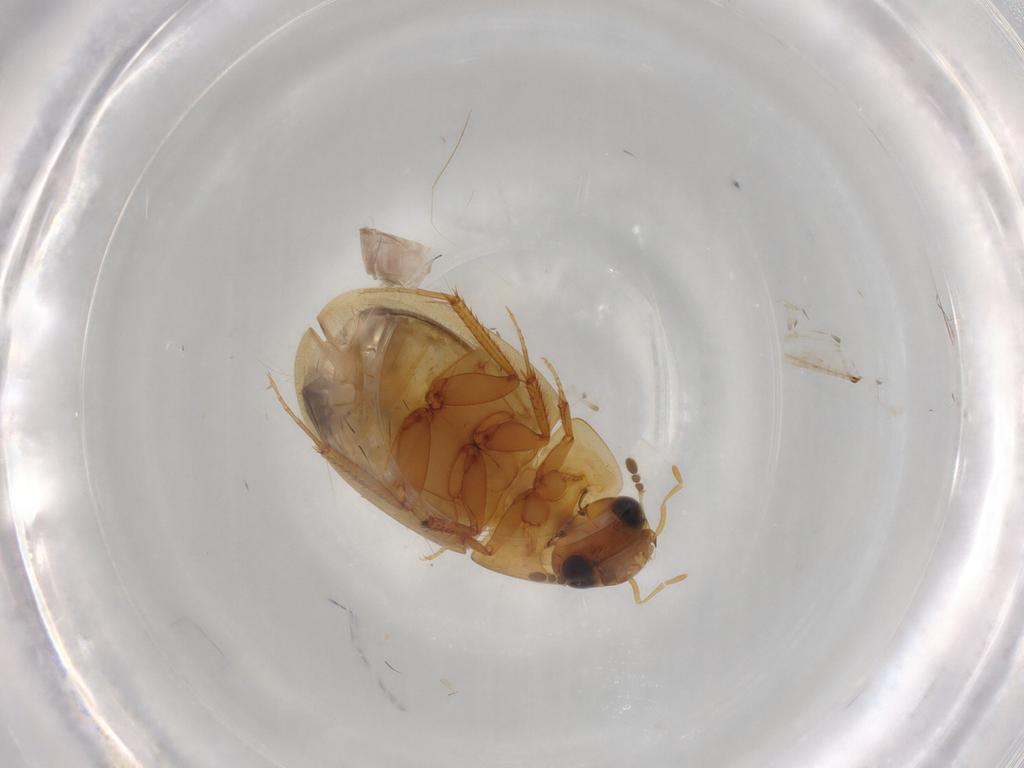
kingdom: Animalia
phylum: Arthropoda
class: Insecta
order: Coleoptera
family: Hydrophilidae
